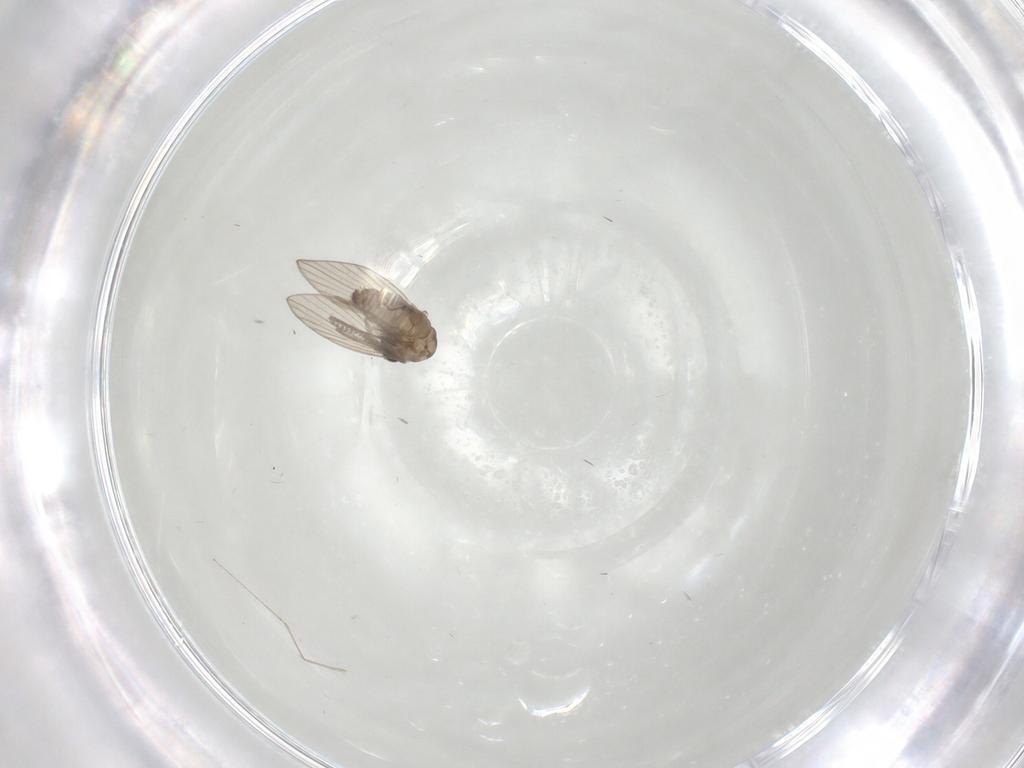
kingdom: Animalia
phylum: Arthropoda
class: Insecta
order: Diptera
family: Psychodidae
